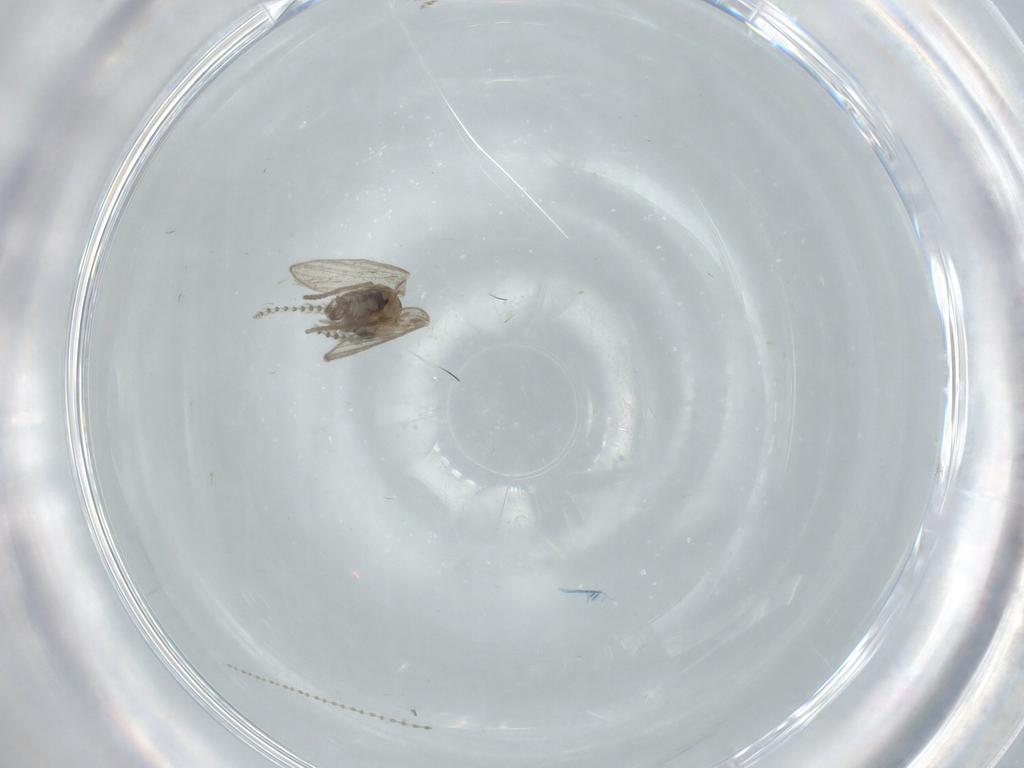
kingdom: Animalia
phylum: Arthropoda
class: Insecta
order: Diptera
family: Psychodidae
